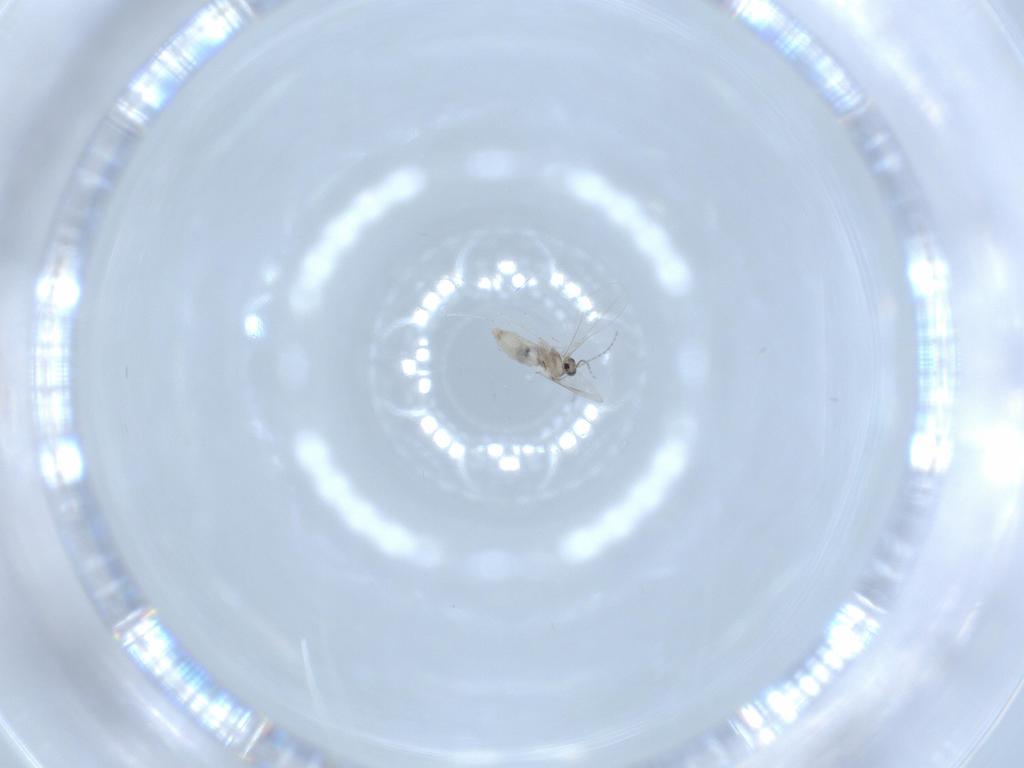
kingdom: Animalia
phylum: Arthropoda
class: Insecta
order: Diptera
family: Cecidomyiidae
